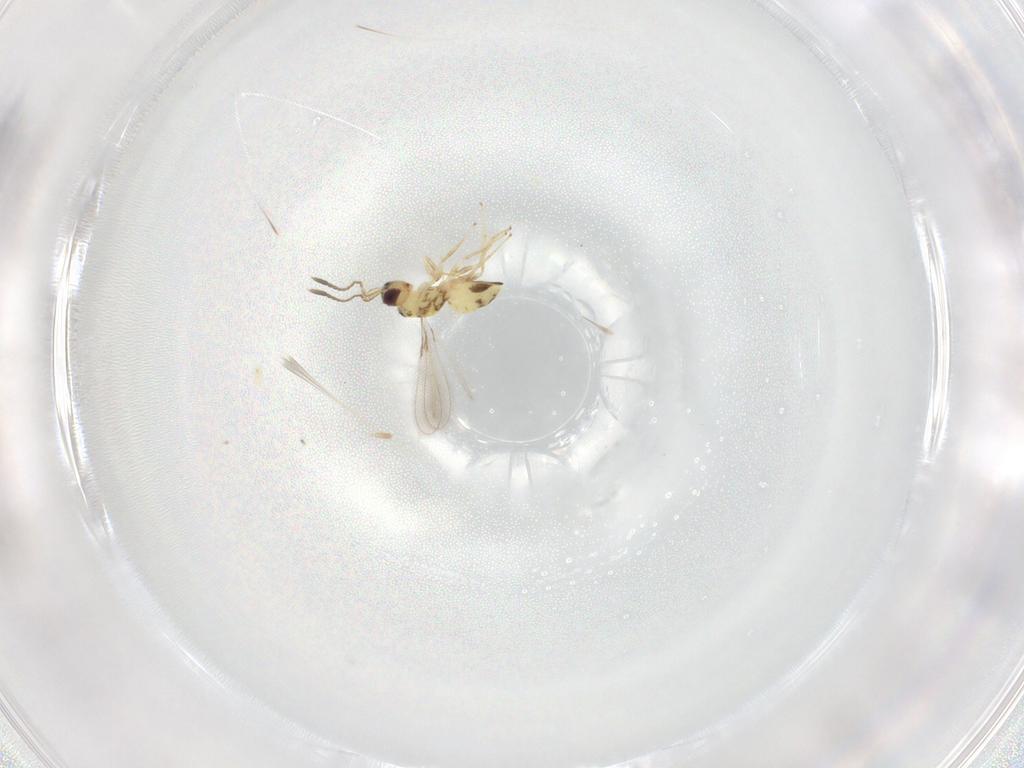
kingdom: Animalia
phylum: Arthropoda
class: Insecta
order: Hymenoptera
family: Mymaridae
